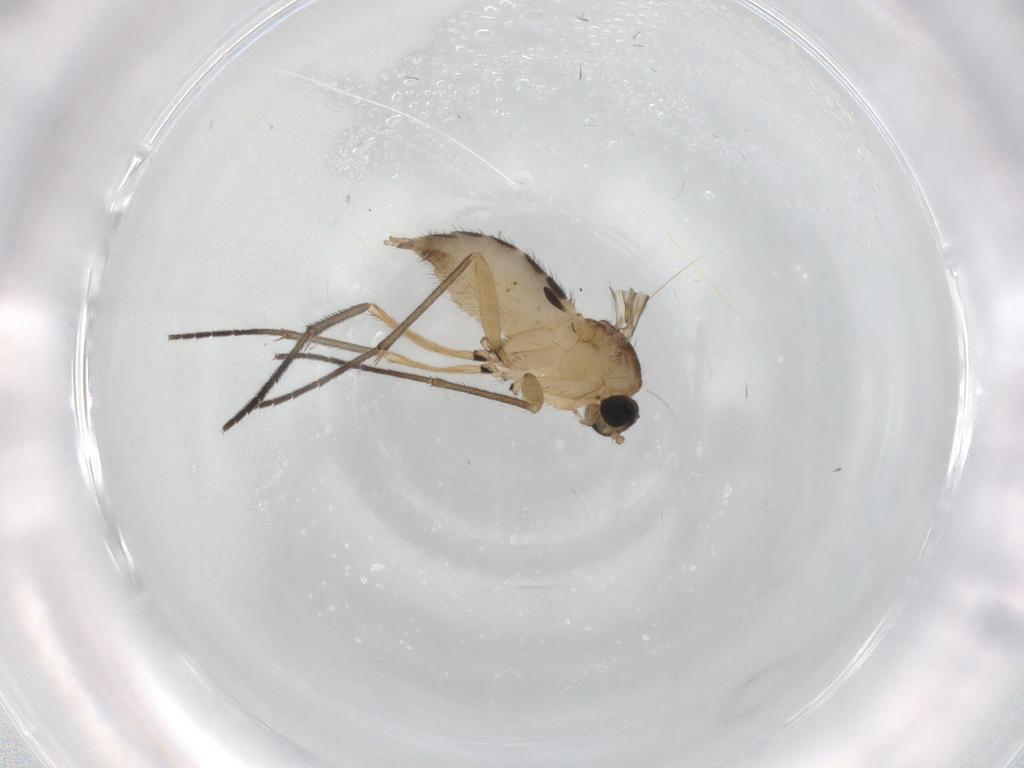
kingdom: Animalia
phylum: Arthropoda
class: Insecta
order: Diptera
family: Sciaridae
